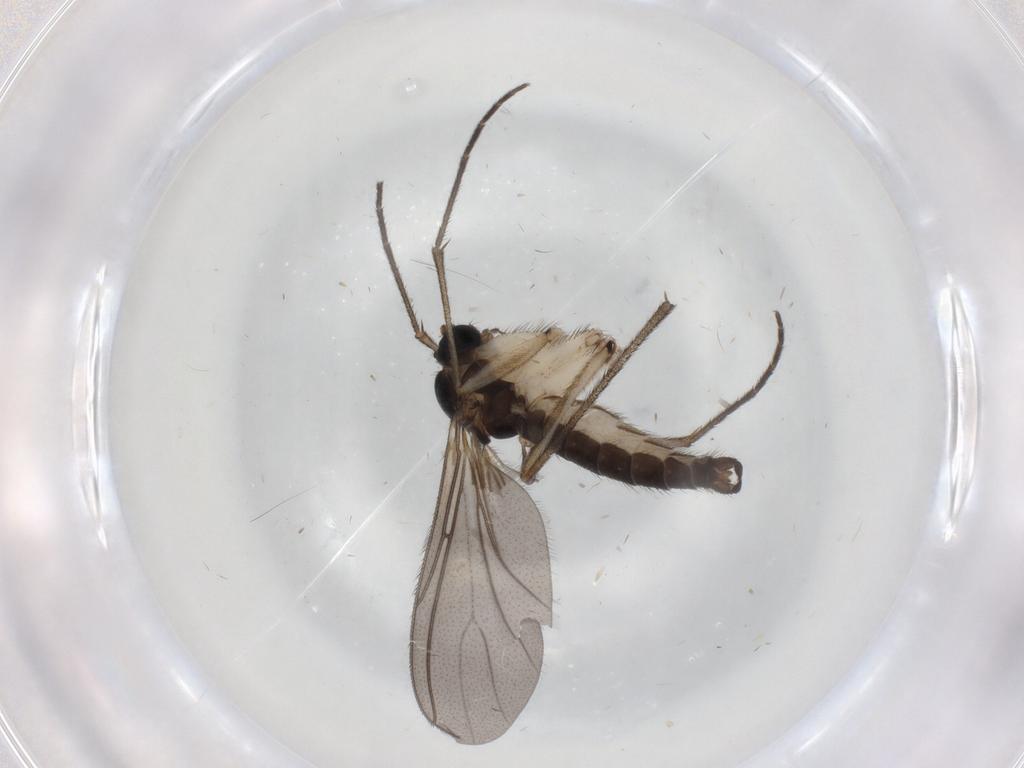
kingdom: Animalia
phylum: Arthropoda
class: Insecta
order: Diptera
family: Sciaridae
